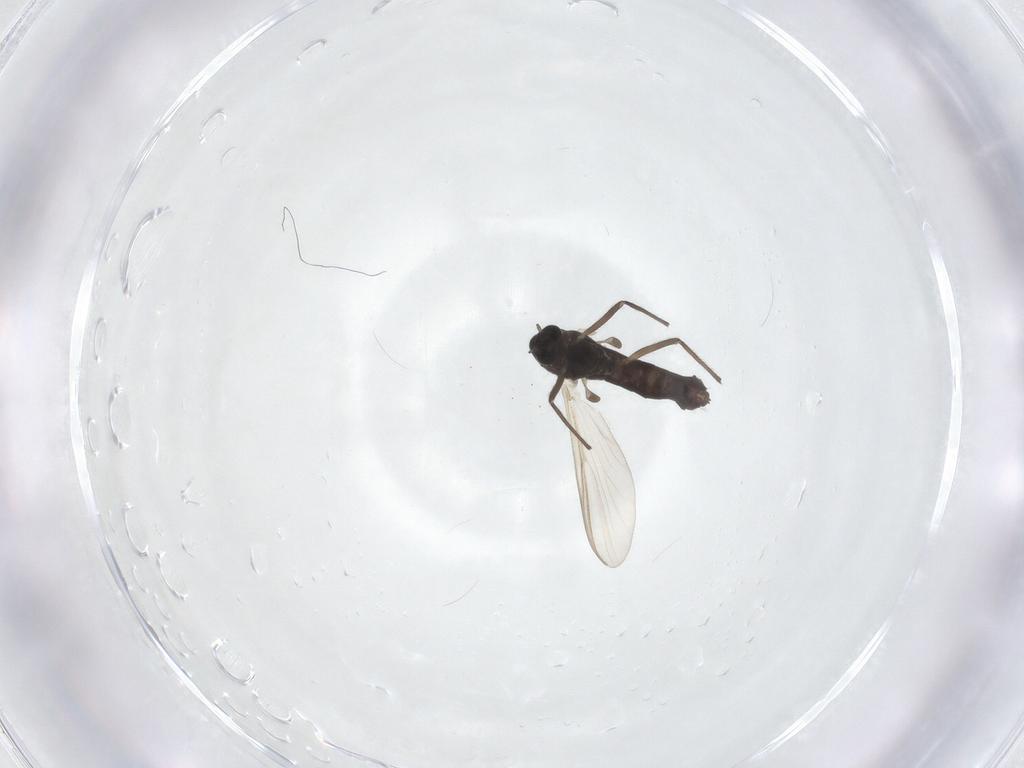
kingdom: Animalia
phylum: Arthropoda
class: Insecta
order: Diptera
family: Chironomidae
